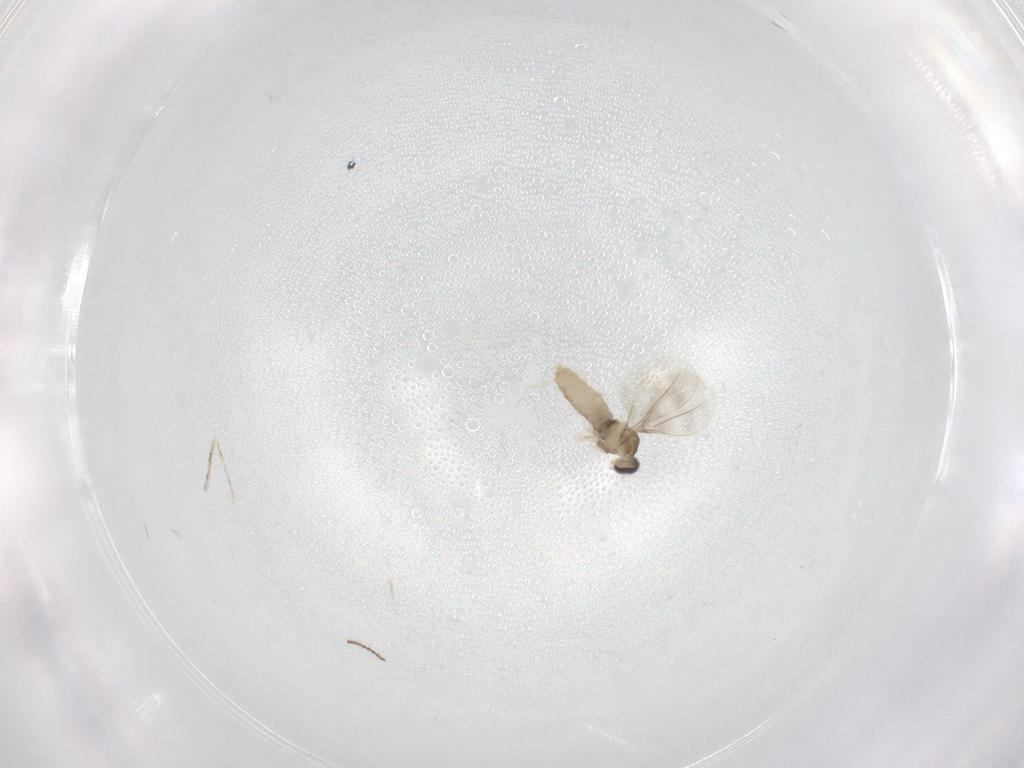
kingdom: Animalia
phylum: Arthropoda
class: Insecta
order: Diptera
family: Cecidomyiidae
